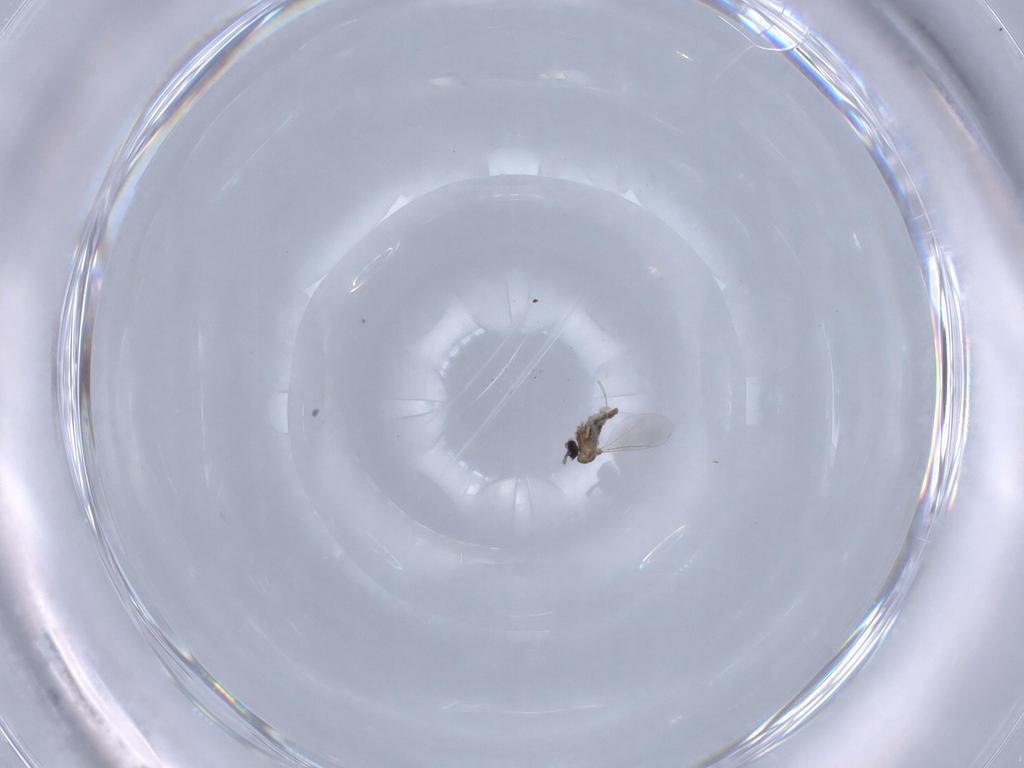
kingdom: Animalia
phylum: Arthropoda
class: Insecta
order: Diptera
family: Chironomidae
